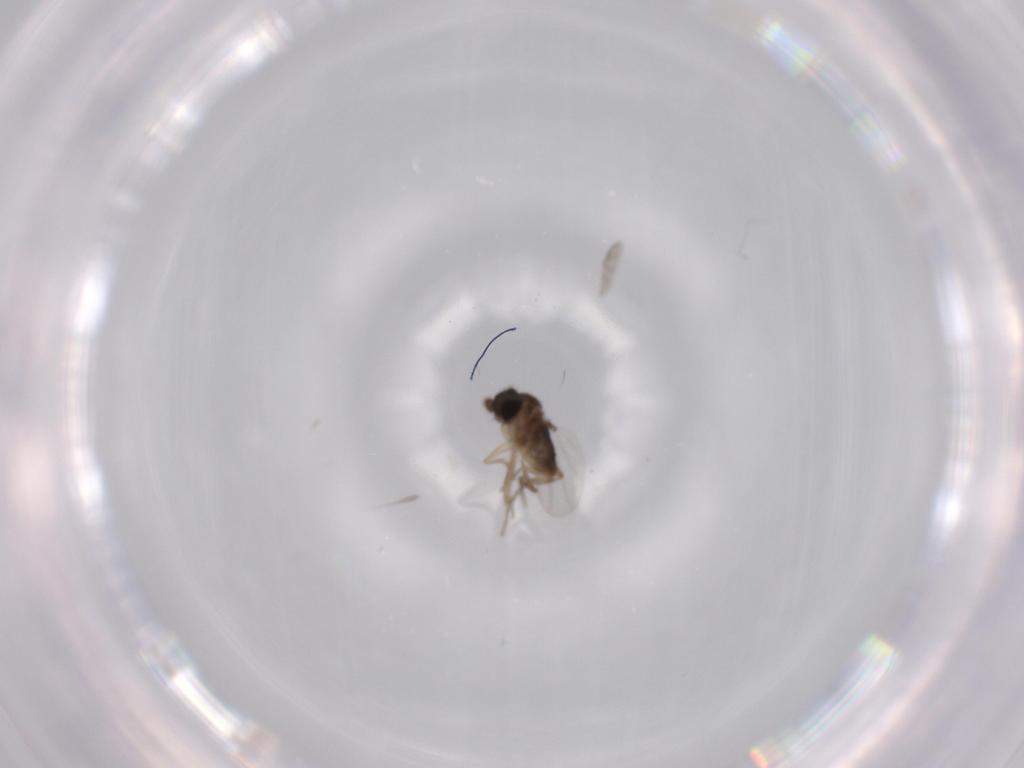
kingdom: Animalia
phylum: Arthropoda
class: Insecta
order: Diptera
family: Phoridae
